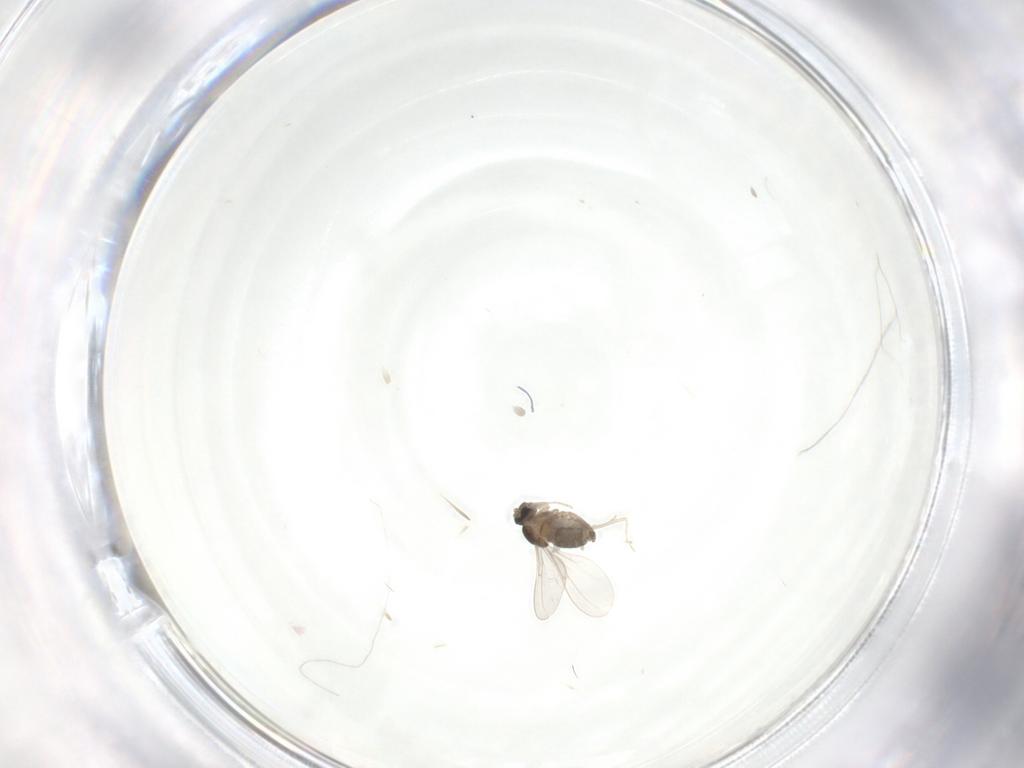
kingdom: Animalia
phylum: Arthropoda
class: Insecta
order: Diptera
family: Cecidomyiidae
